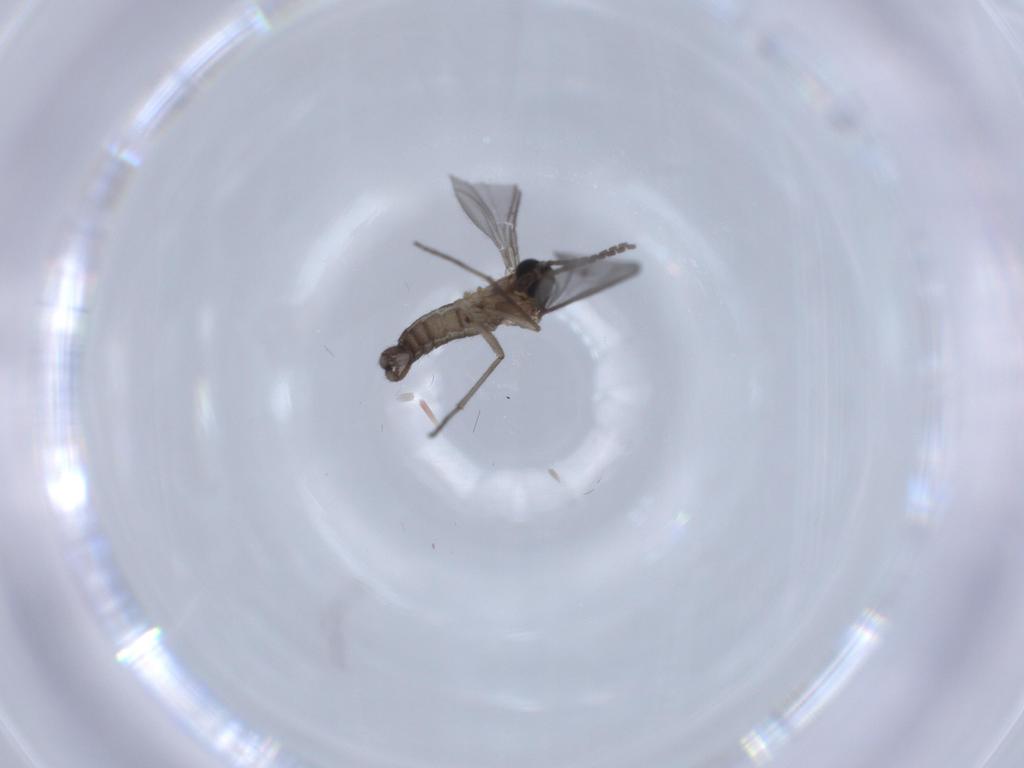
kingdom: Animalia
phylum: Arthropoda
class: Insecta
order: Diptera
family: Sciaridae
